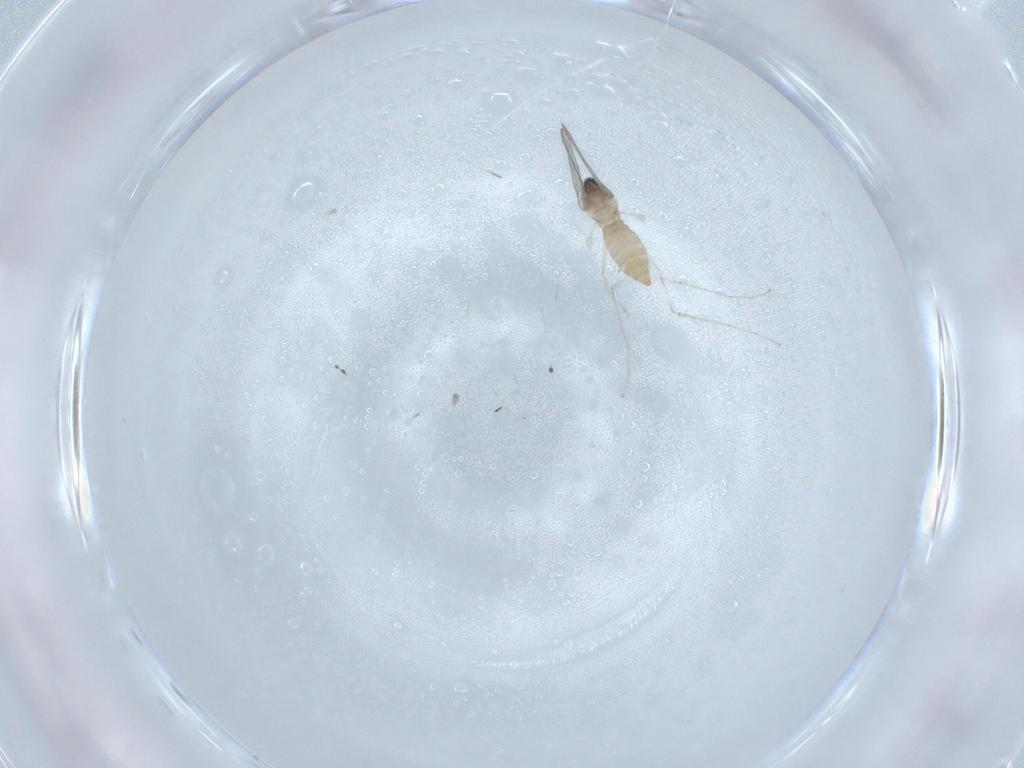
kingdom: Animalia
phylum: Arthropoda
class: Insecta
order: Diptera
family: Cecidomyiidae
